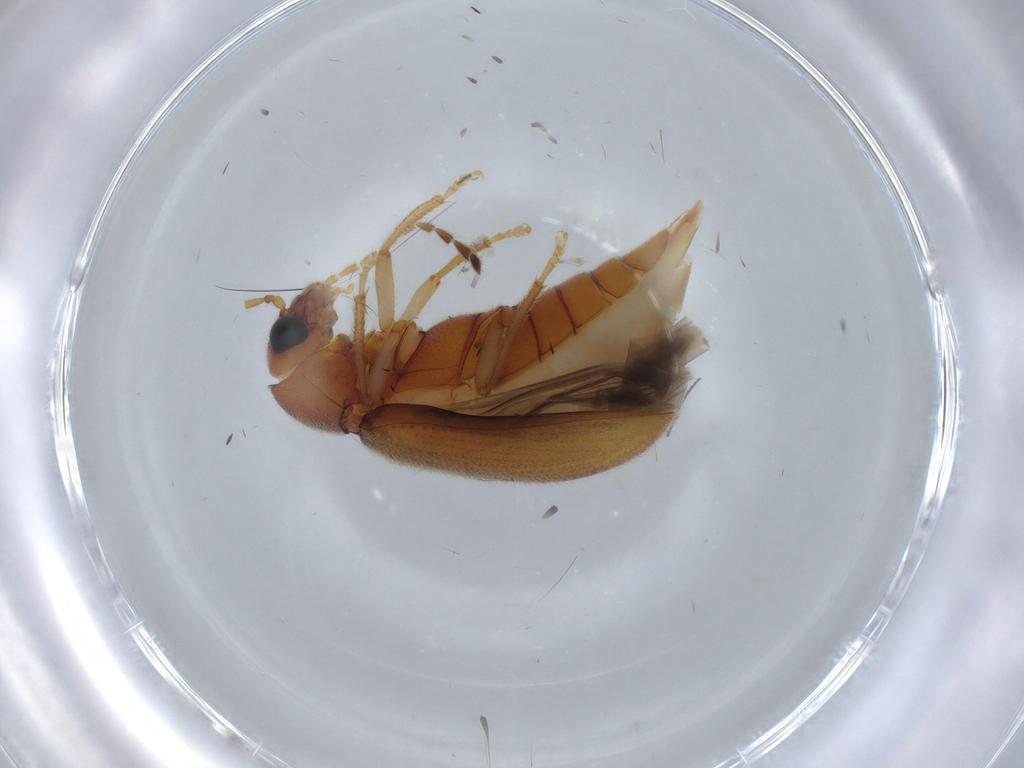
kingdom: Animalia
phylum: Arthropoda
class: Insecta
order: Coleoptera
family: Ptilodactylidae
